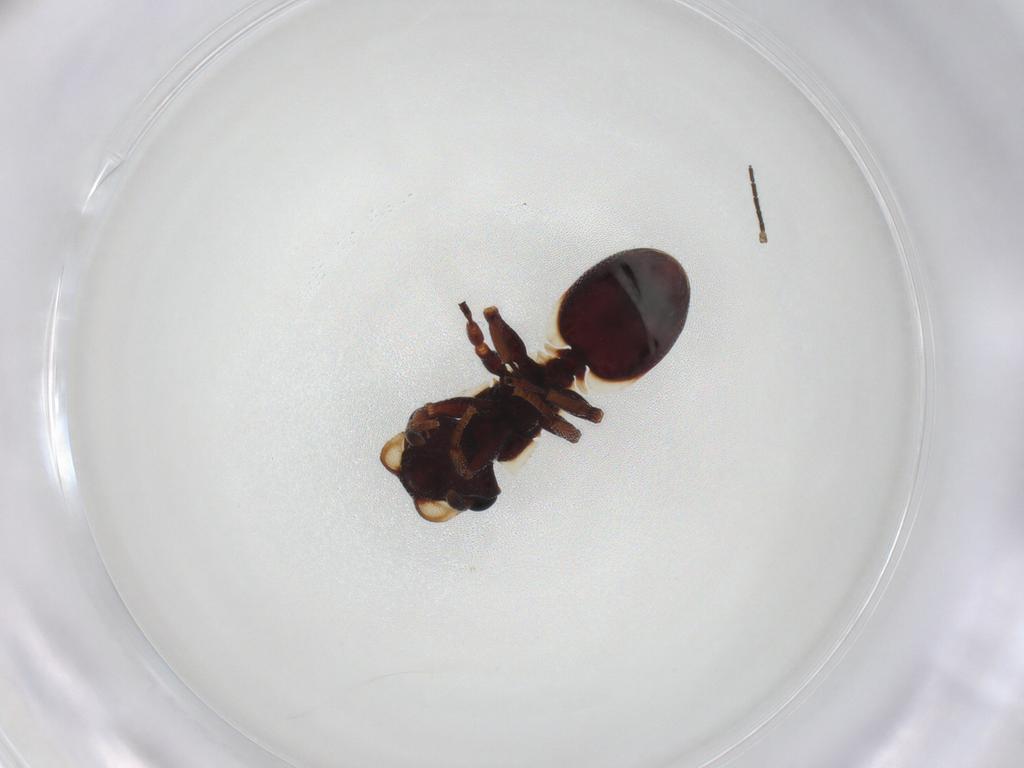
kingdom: Animalia
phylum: Arthropoda
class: Insecta
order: Hymenoptera
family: Formicidae
